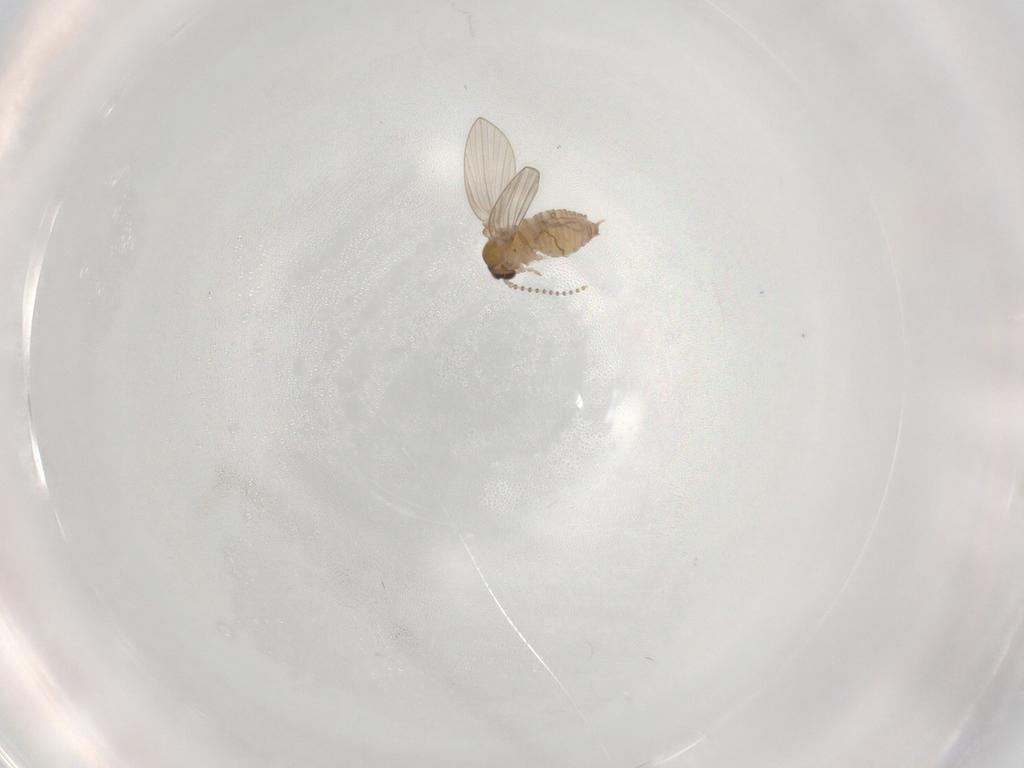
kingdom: Animalia
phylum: Arthropoda
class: Insecta
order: Diptera
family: Psychodidae
